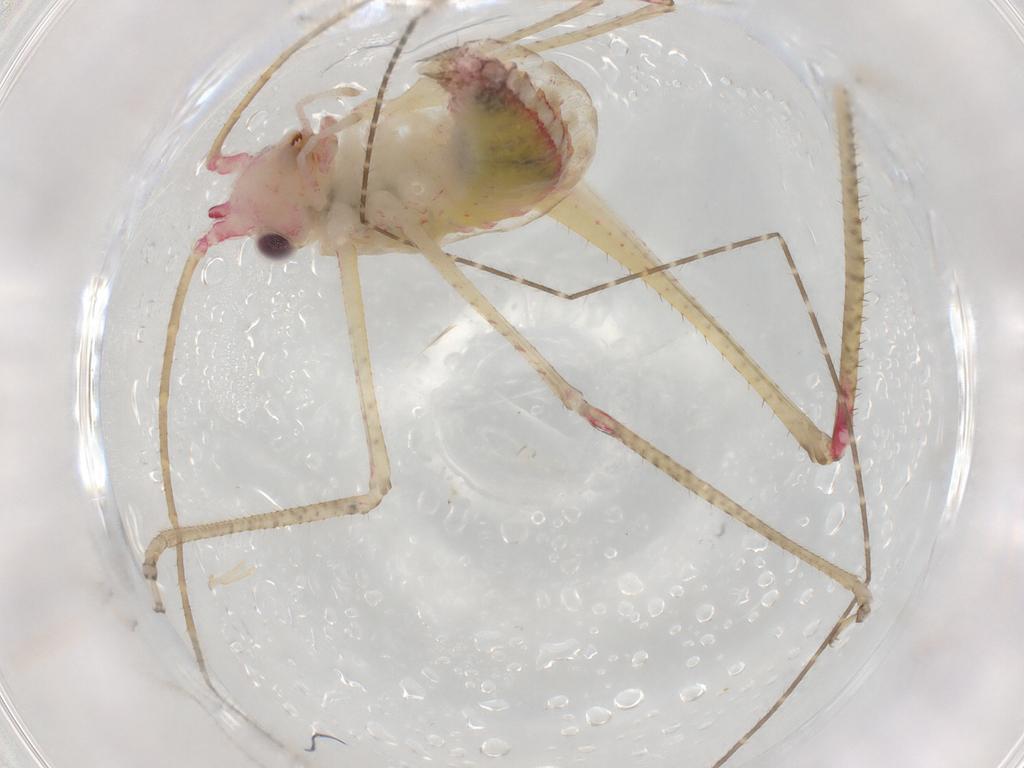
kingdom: Animalia
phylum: Arthropoda
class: Insecta
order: Orthoptera
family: Tettigoniidae
